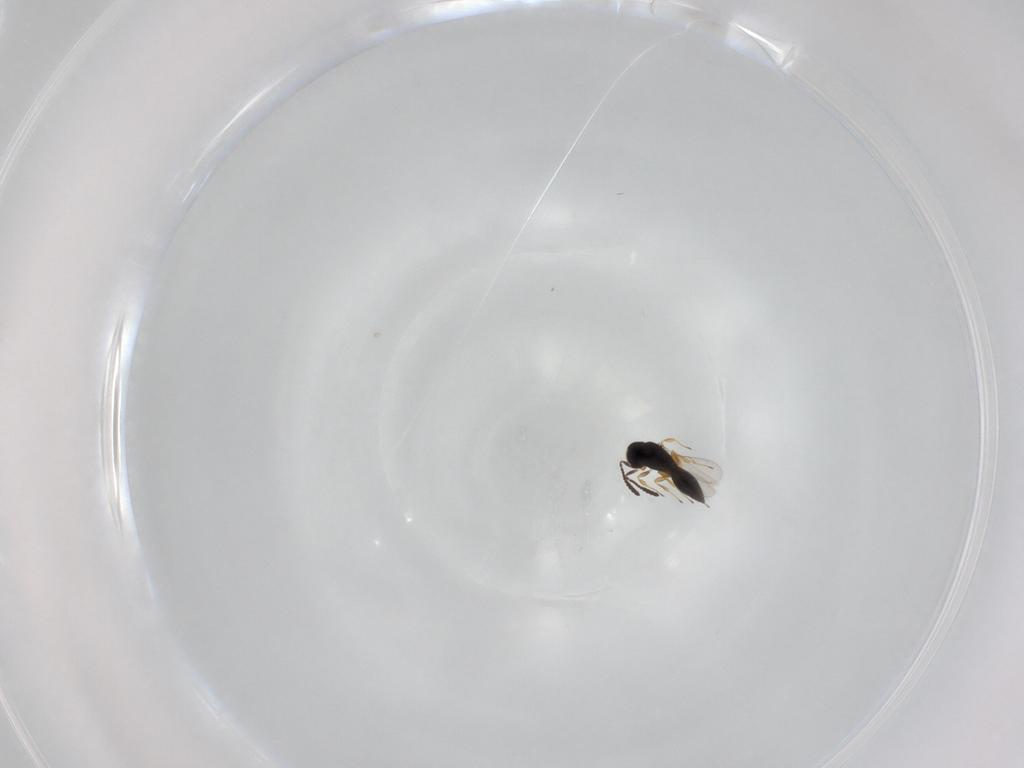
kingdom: Animalia
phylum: Arthropoda
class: Insecta
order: Hymenoptera
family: Scelionidae
